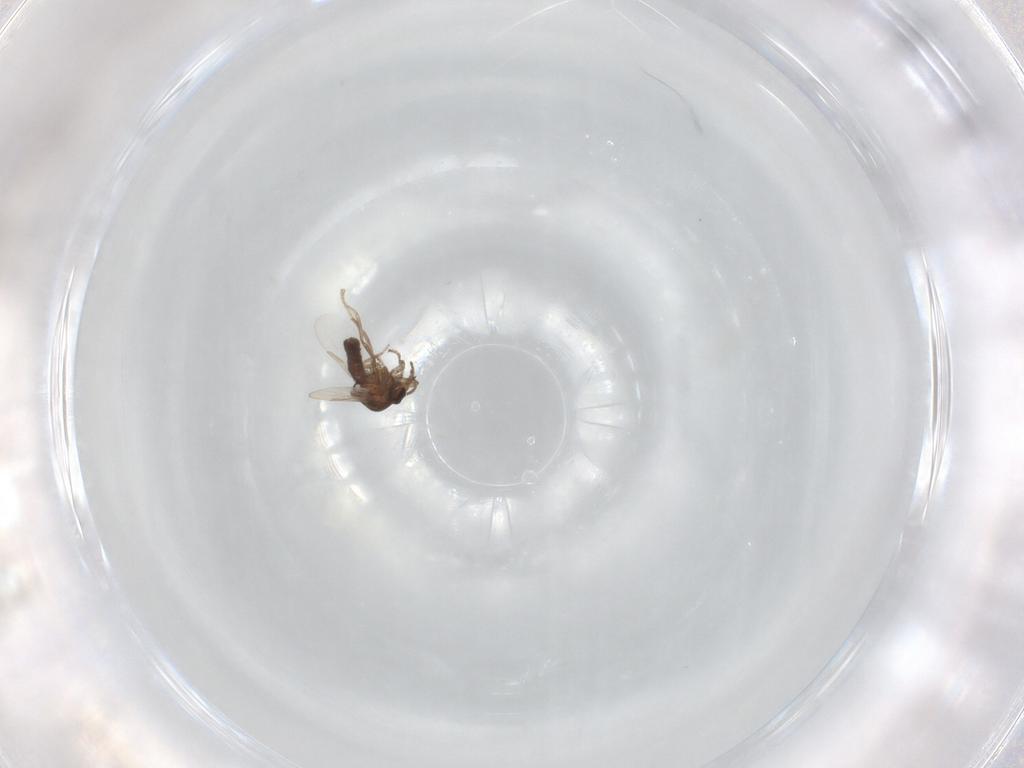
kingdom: Animalia
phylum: Arthropoda
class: Insecta
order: Diptera
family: Ceratopogonidae
